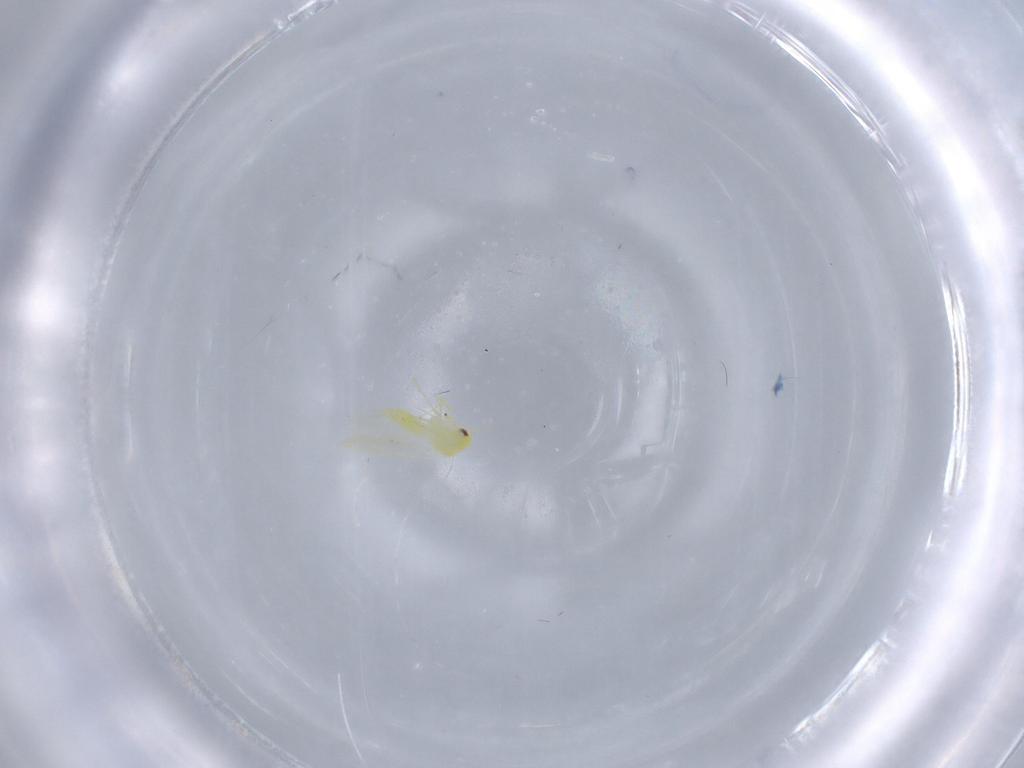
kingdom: Animalia
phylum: Arthropoda
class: Insecta
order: Hemiptera
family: Aleyrodidae
